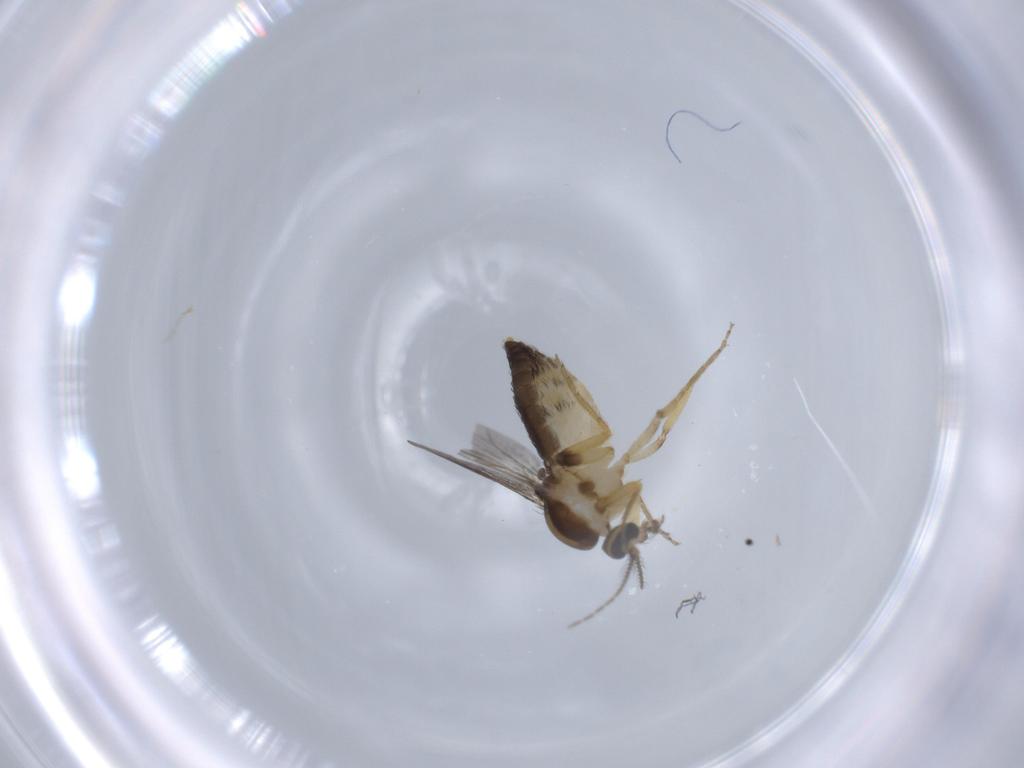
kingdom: Animalia
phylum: Arthropoda
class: Insecta
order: Diptera
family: Ceratopogonidae
